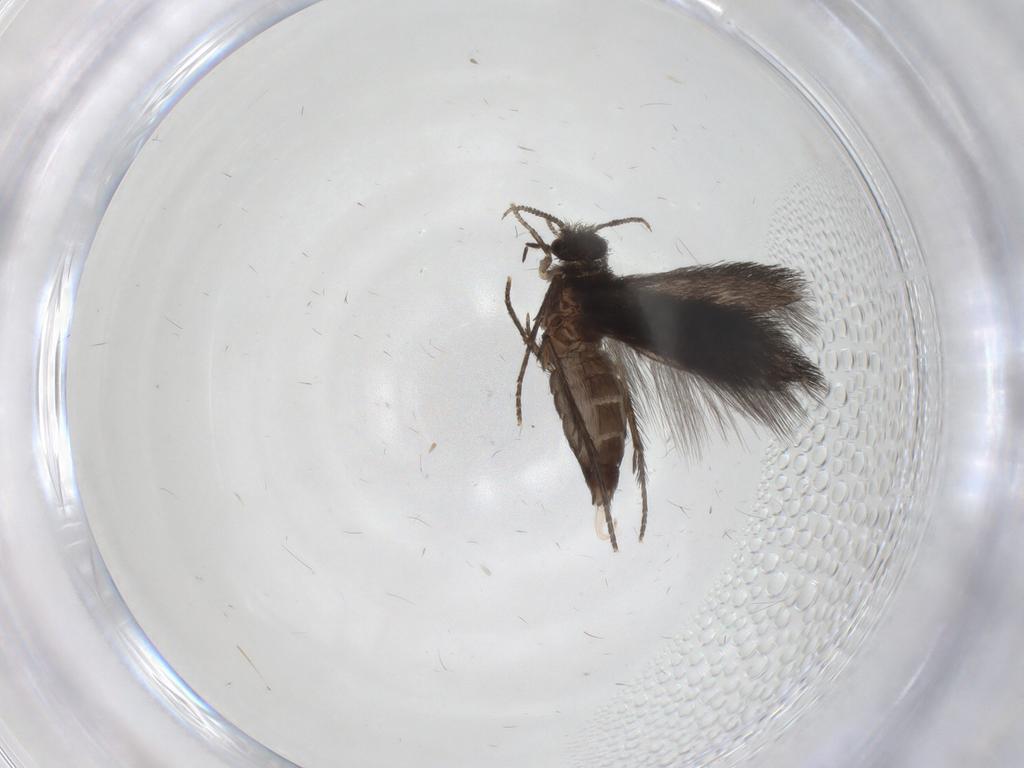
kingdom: Animalia
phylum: Arthropoda
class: Insecta
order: Trichoptera
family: Hydroptilidae
